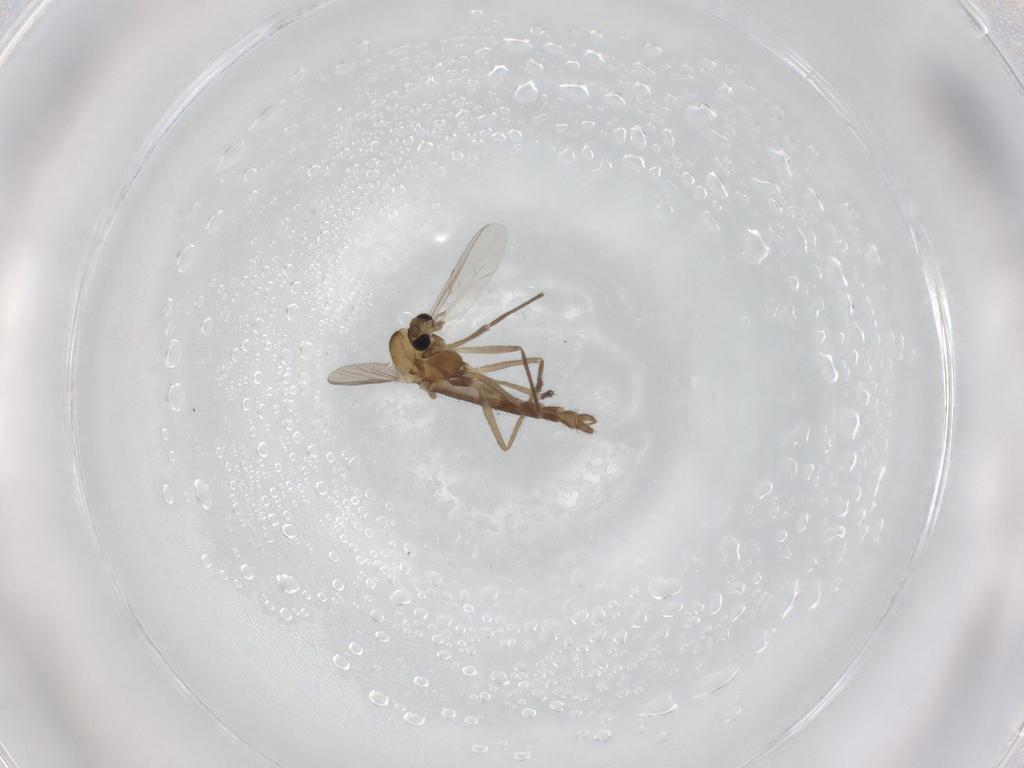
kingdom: Animalia
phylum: Arthropoda
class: Insecta
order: Diptera
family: Chironomidae
